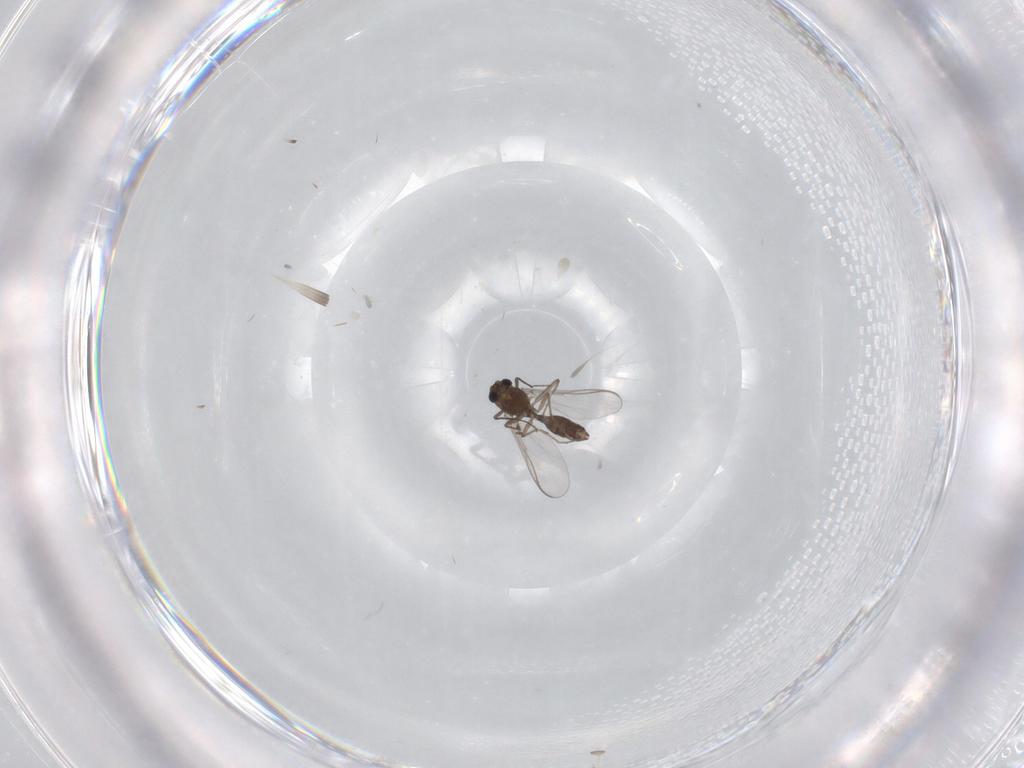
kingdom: Animalia
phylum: Arthropoda
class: Insecta
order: Diptera
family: Chironomidae
